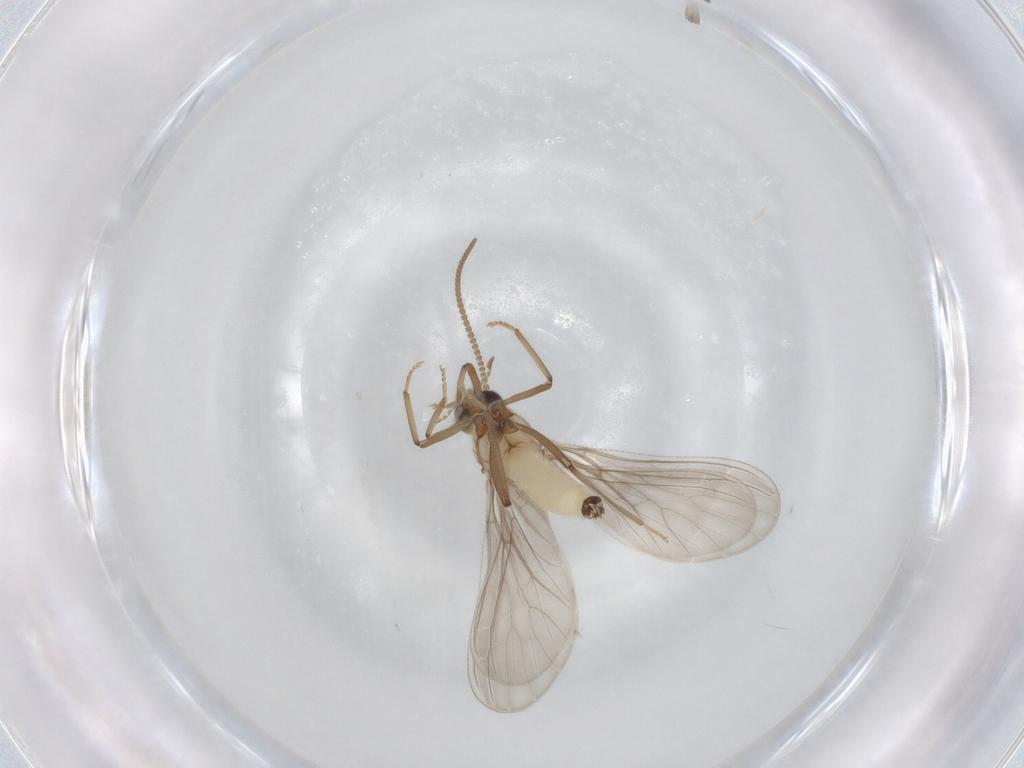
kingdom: Animalia
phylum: Arthropoda
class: Insecta
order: Neuroptera
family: Coniopterygidae
